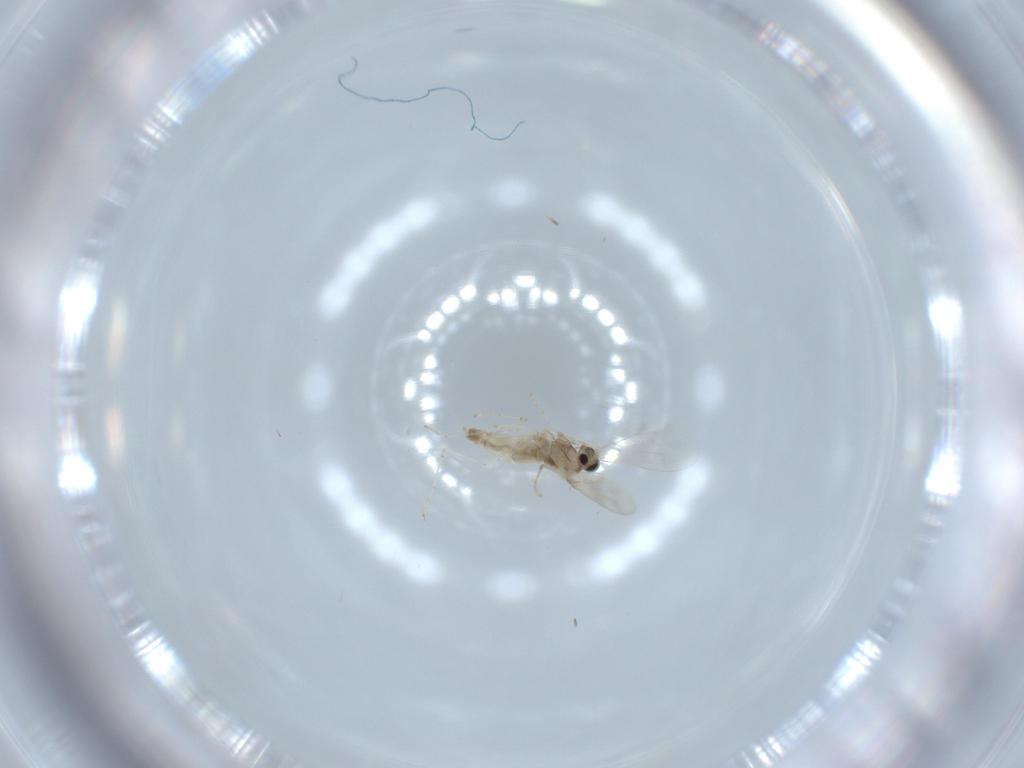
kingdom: Animalia
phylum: Arthropoda
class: Insecta
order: Diptera
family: Cecidomyiidae
